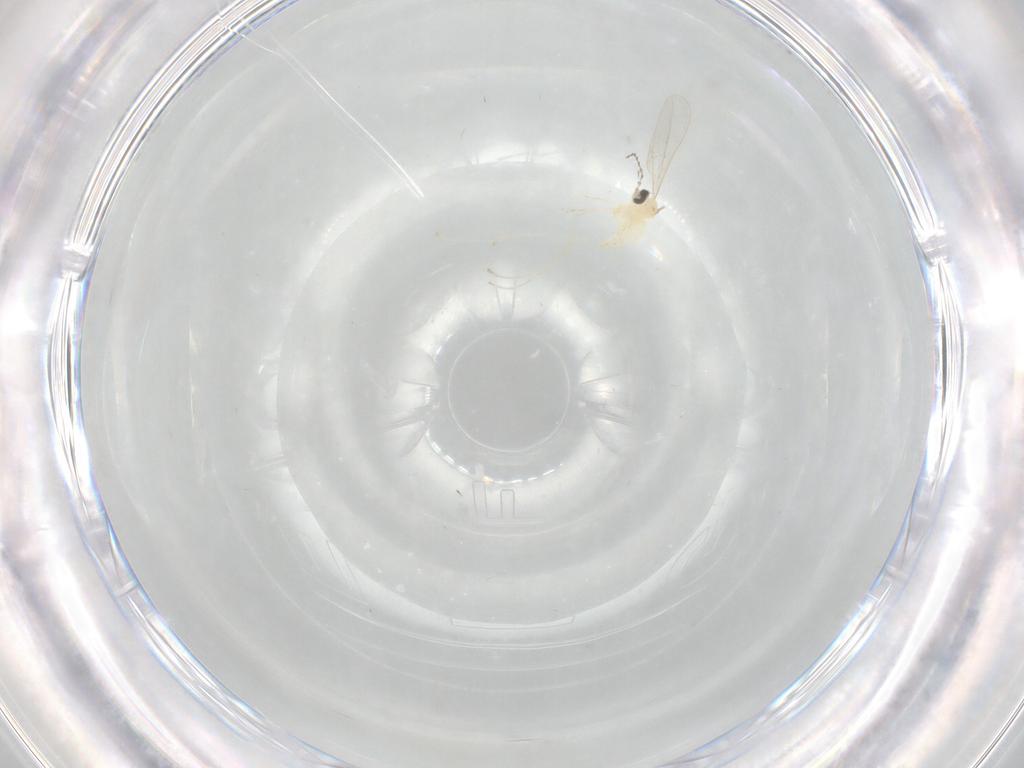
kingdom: Animalia
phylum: Arthropoda
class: Insecta
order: Diptera
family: Cecidomyiidae
